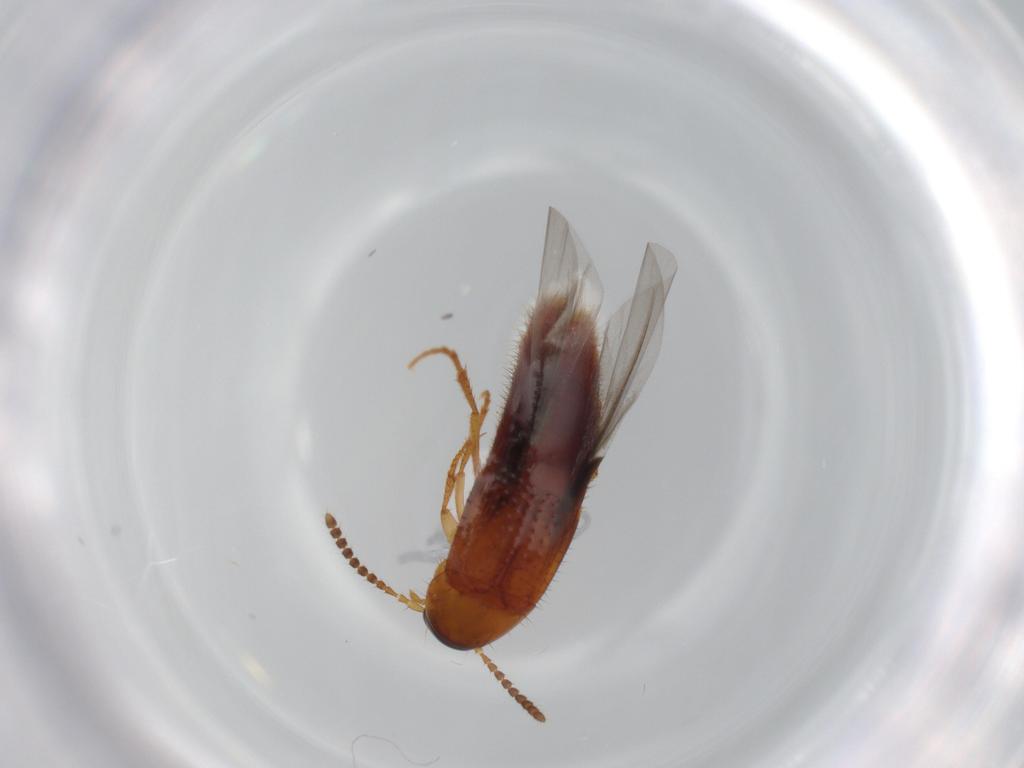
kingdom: Animalia
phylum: Arthropoda
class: Insecta
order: Coleoptera
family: Staphylinidae
